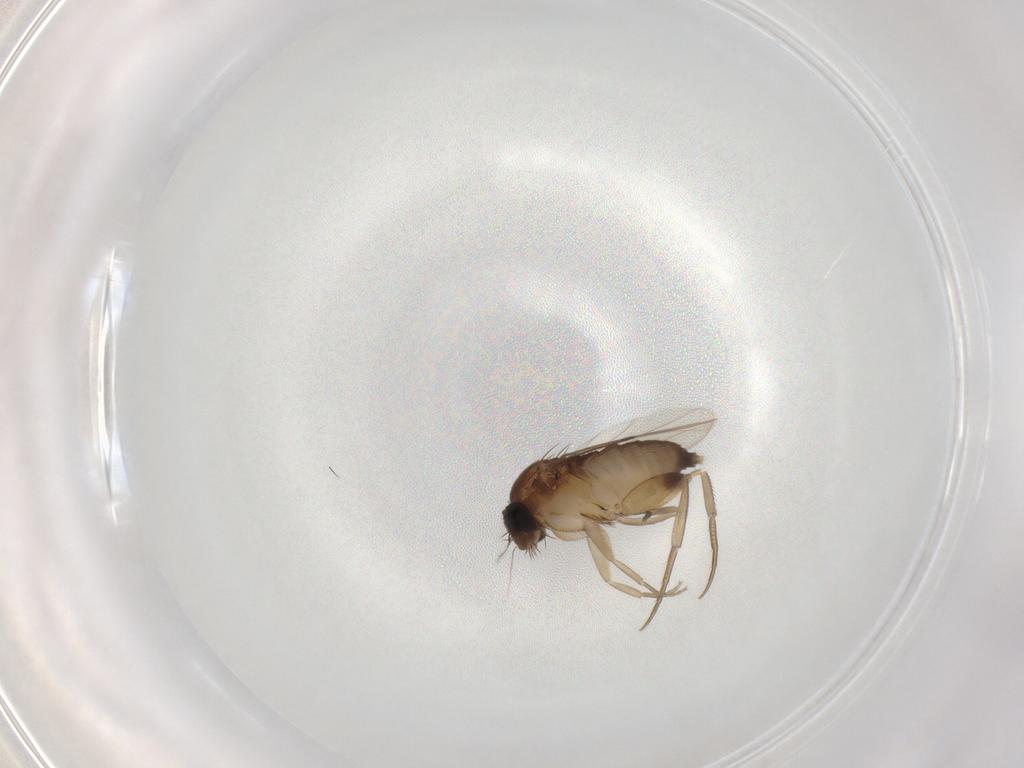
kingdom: Animalia
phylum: Arthropoda
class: Insecta
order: Diptera
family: Phoridae
